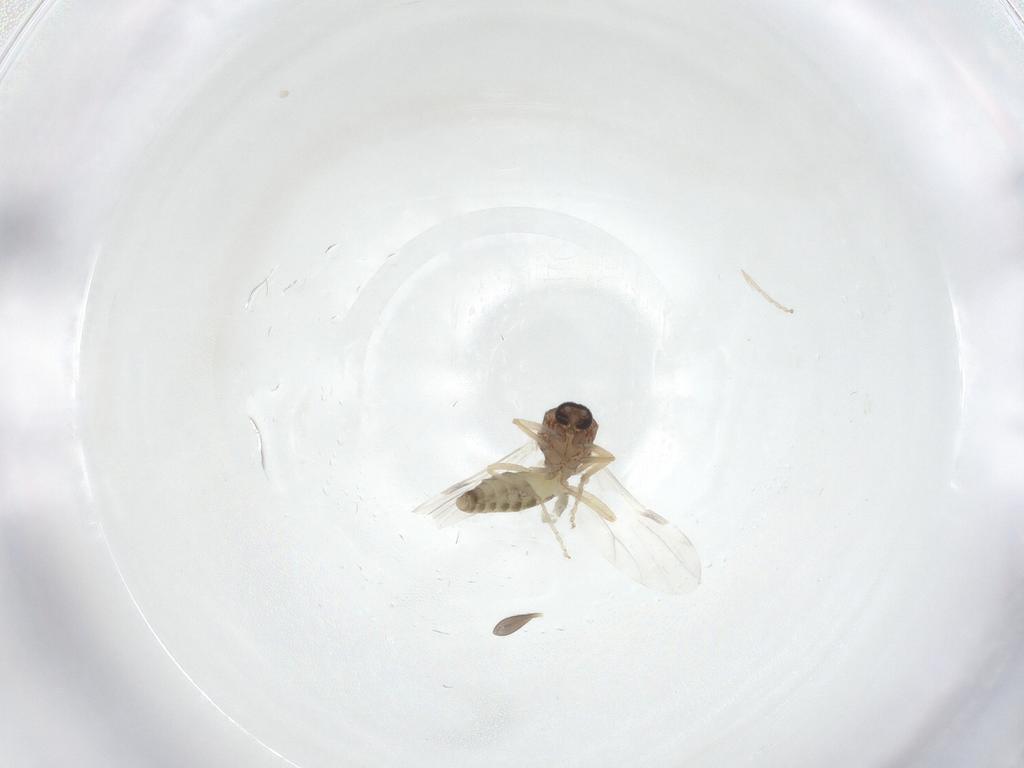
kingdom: Animalia
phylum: Arthropoda
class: Insecta
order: Diptera
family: Ceratopogonidae
